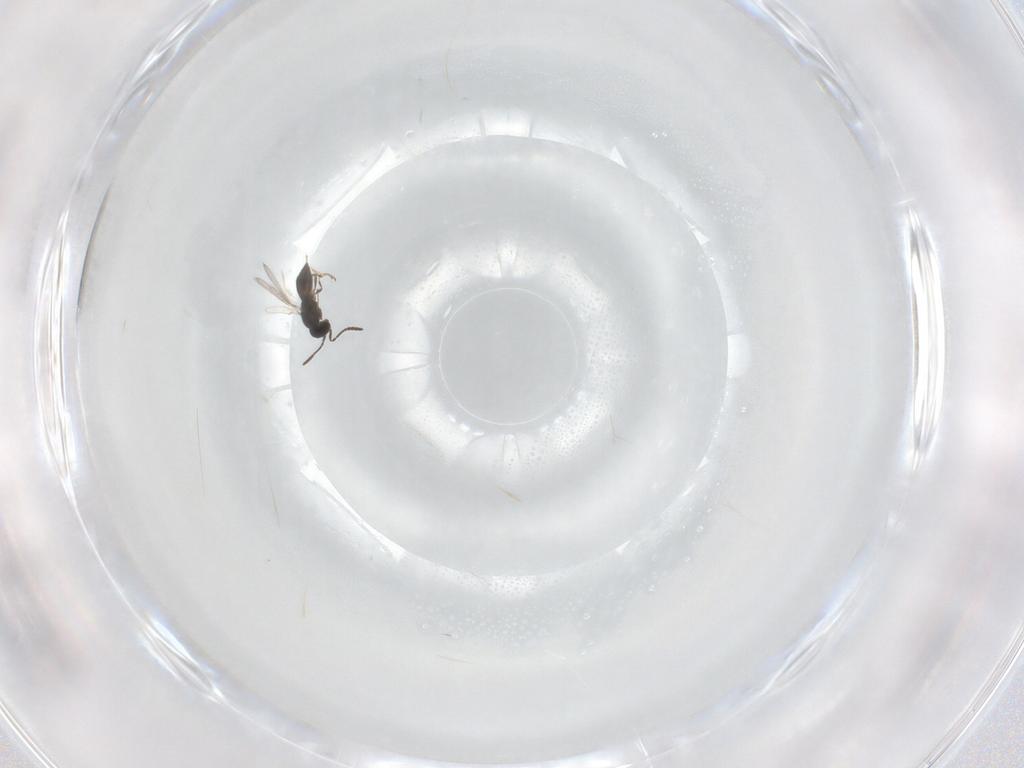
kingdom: Animalia
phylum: Arthropoda
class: Insecta
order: Hymenoptera
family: Scelionidae
